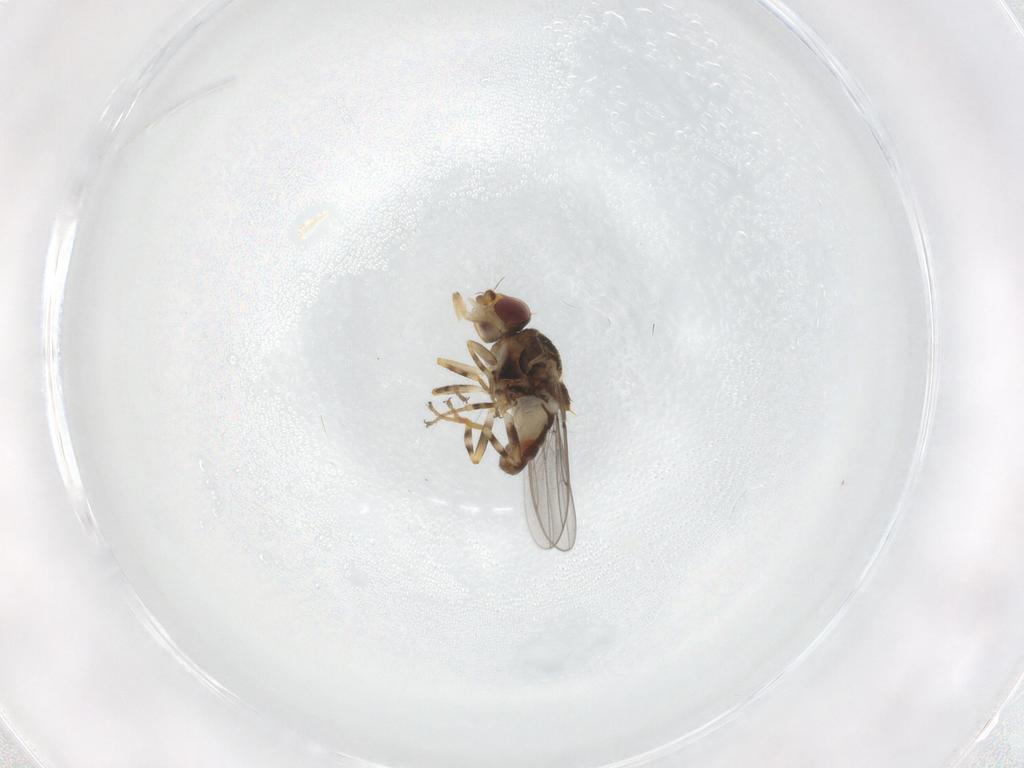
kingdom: Animalia
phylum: Arthropoda
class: Insecta
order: Diptera
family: Chloropidae
